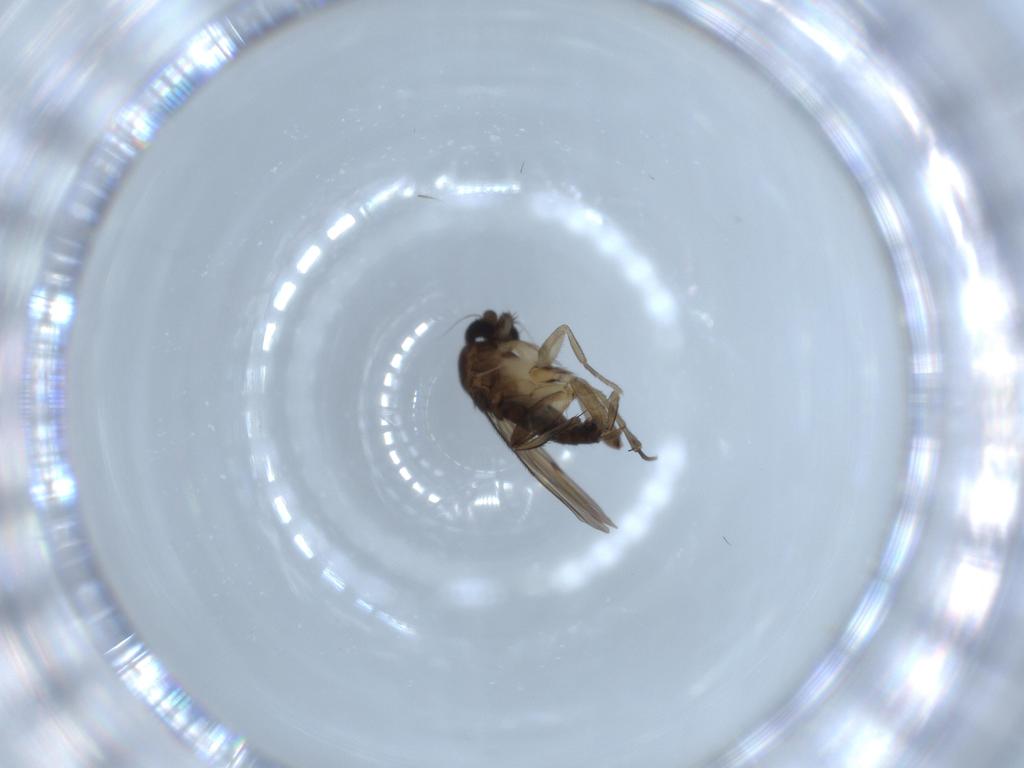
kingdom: Animalia
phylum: Arthropoda
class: Insecta
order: Diptera
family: Phoridae
